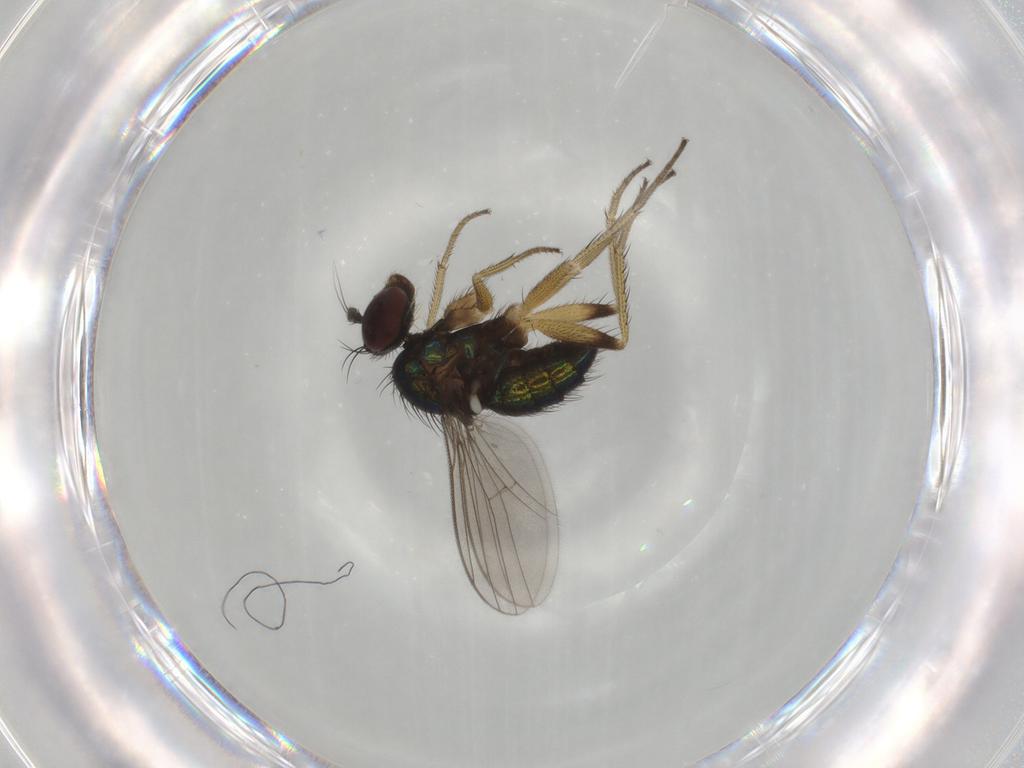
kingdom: Animalia
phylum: Arthropoda
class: Insecta
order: Diptera
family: Dolichopodidae
